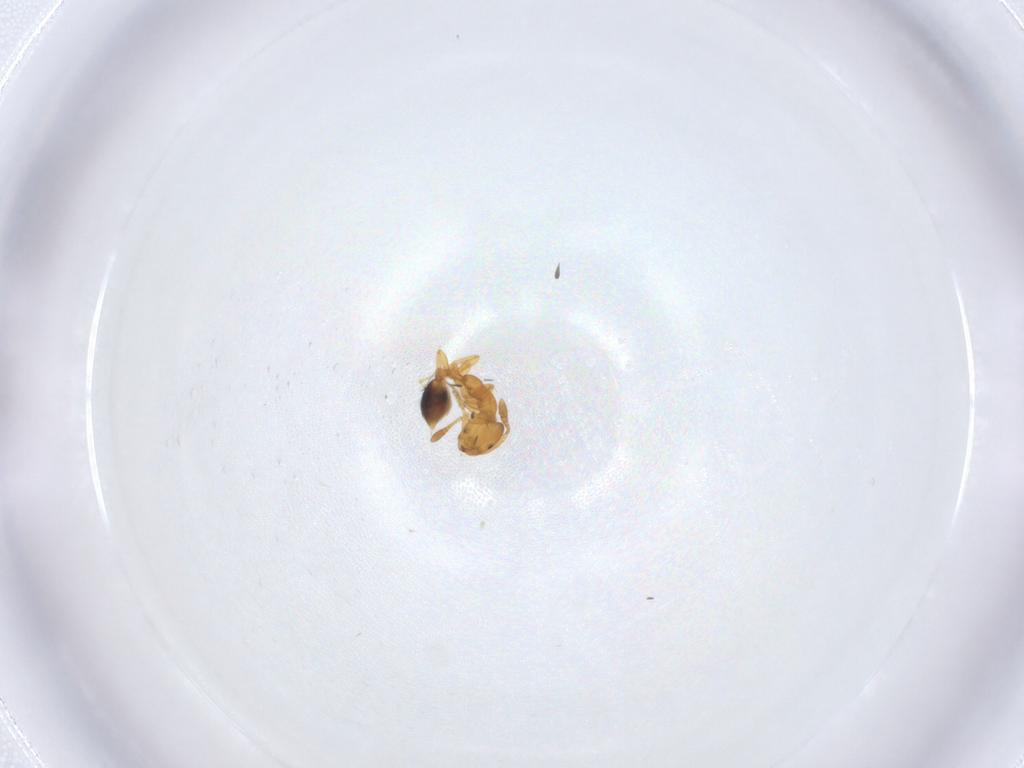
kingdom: Animalia
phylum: Arthropoda
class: Insecta
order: Hymenoptera
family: Formicidae
